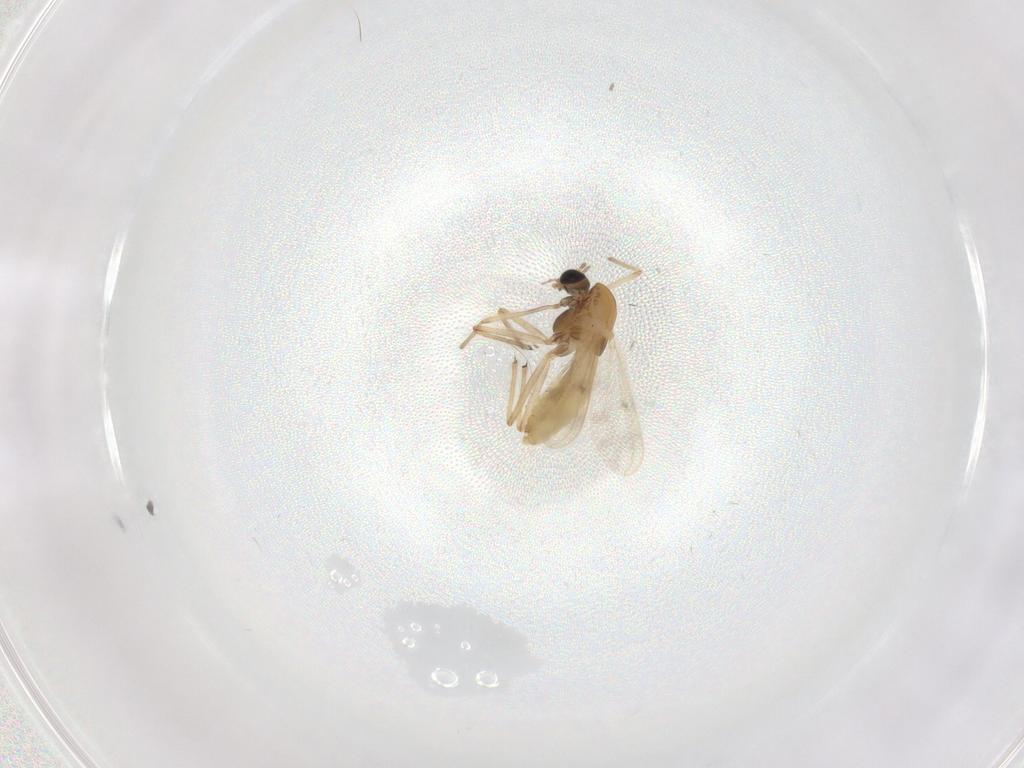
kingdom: Animalia
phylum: Arthropoda
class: Insecta
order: Diptera
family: Chironomidae
